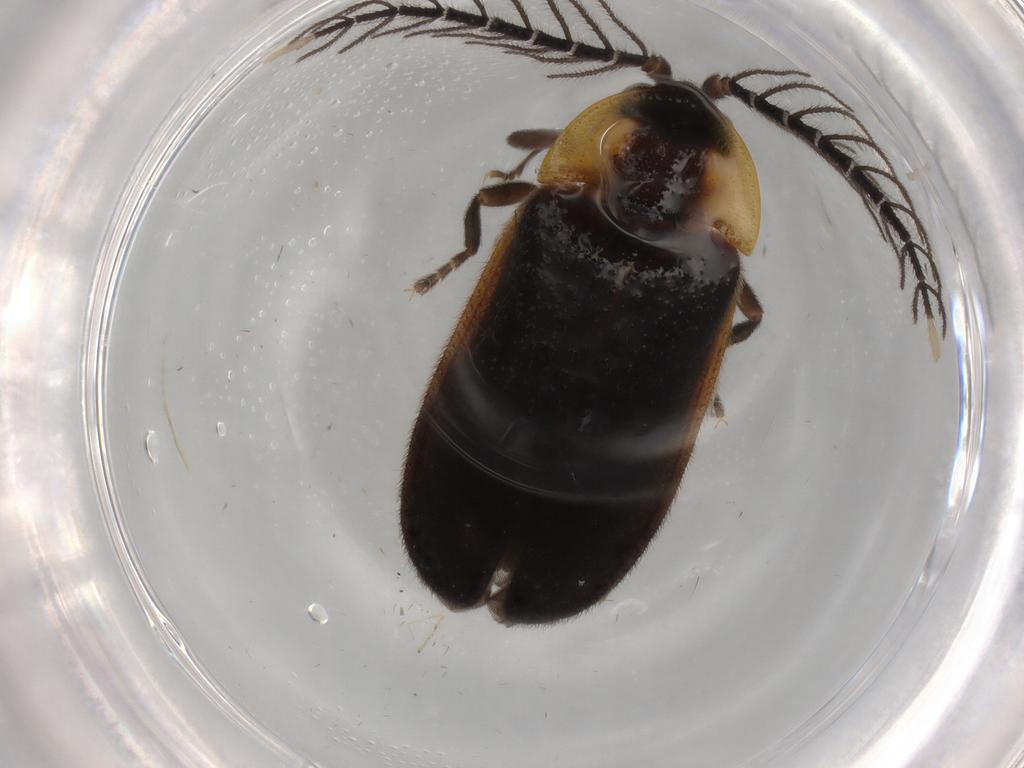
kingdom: Animalia
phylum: Arthropoda
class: Insecta
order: Coleoptera
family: Lampyridae
